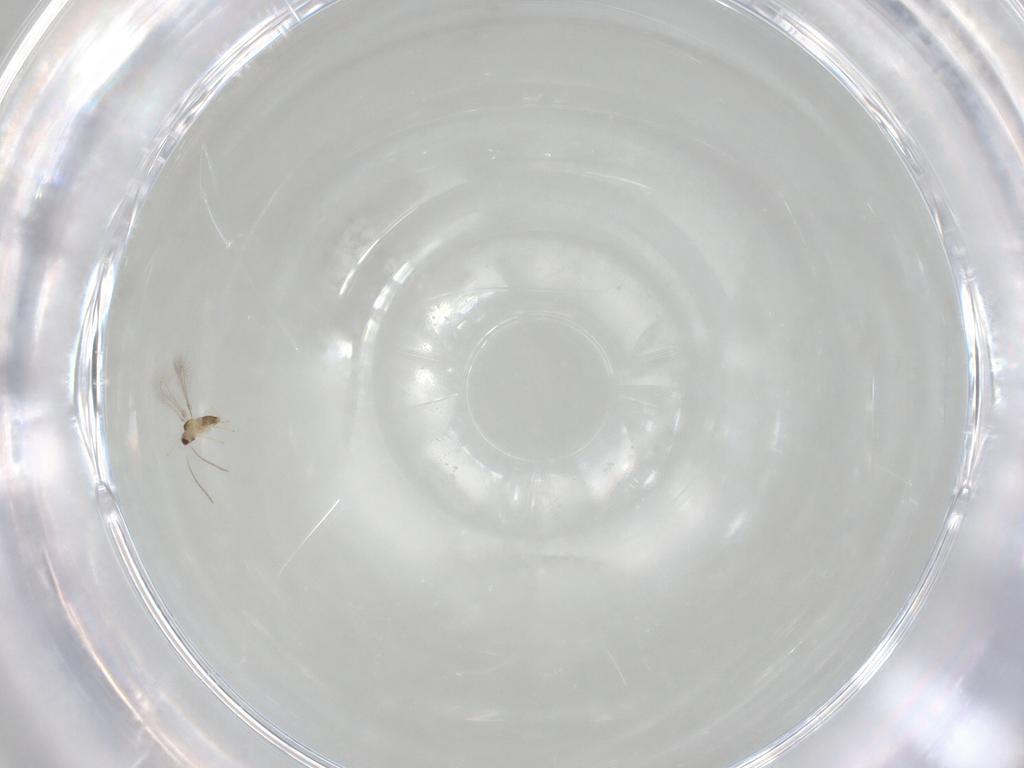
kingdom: Animalia
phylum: Arthropoda
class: Insecta
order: Hymenoptera
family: Mymaridae
